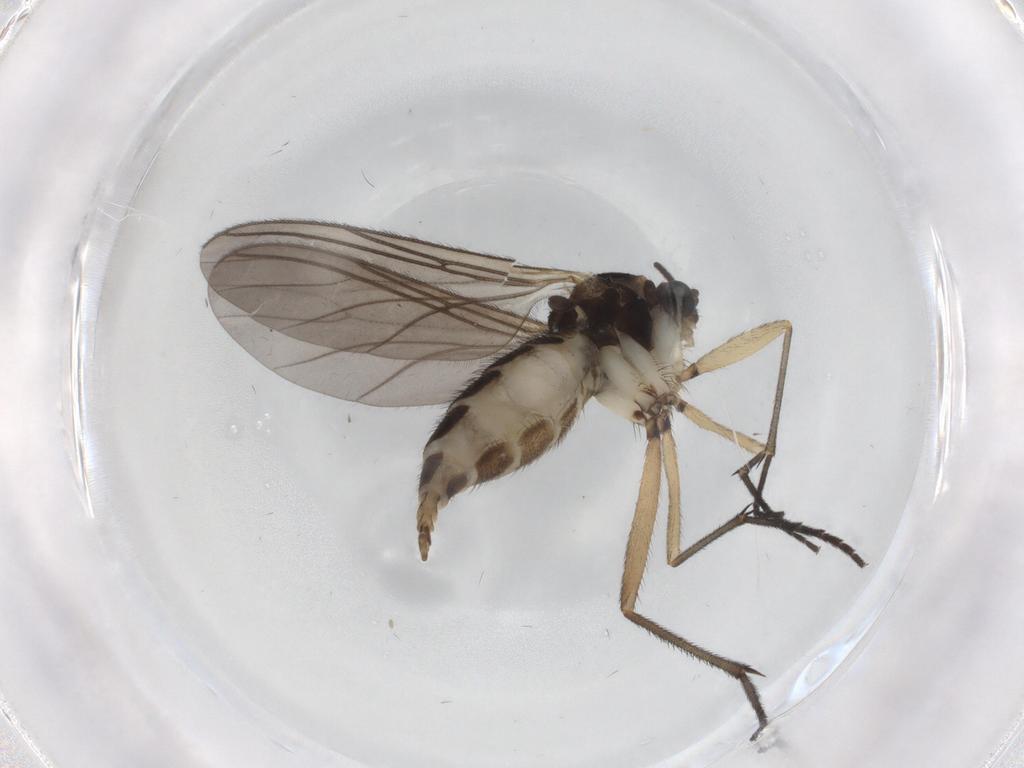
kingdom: Animalia
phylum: Arthropoda
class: Insecta
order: Diptera
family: Sciaridae
